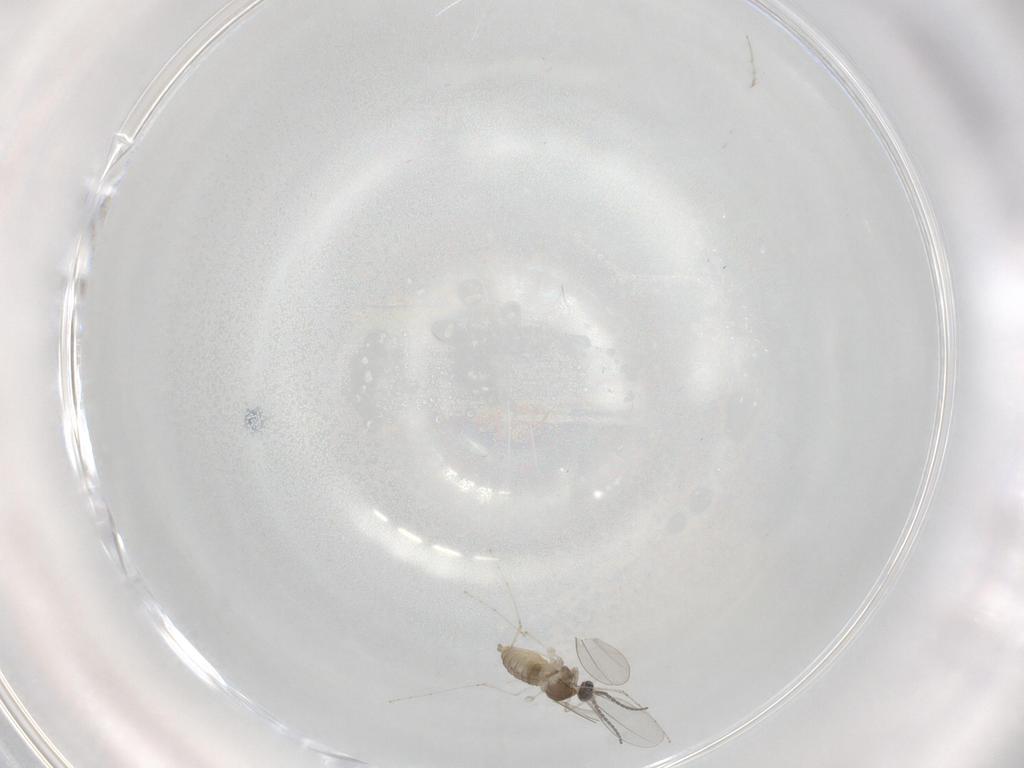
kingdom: Animalia
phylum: Arthropoda
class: Insecta
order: Diptera
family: Cecidomyiidae
